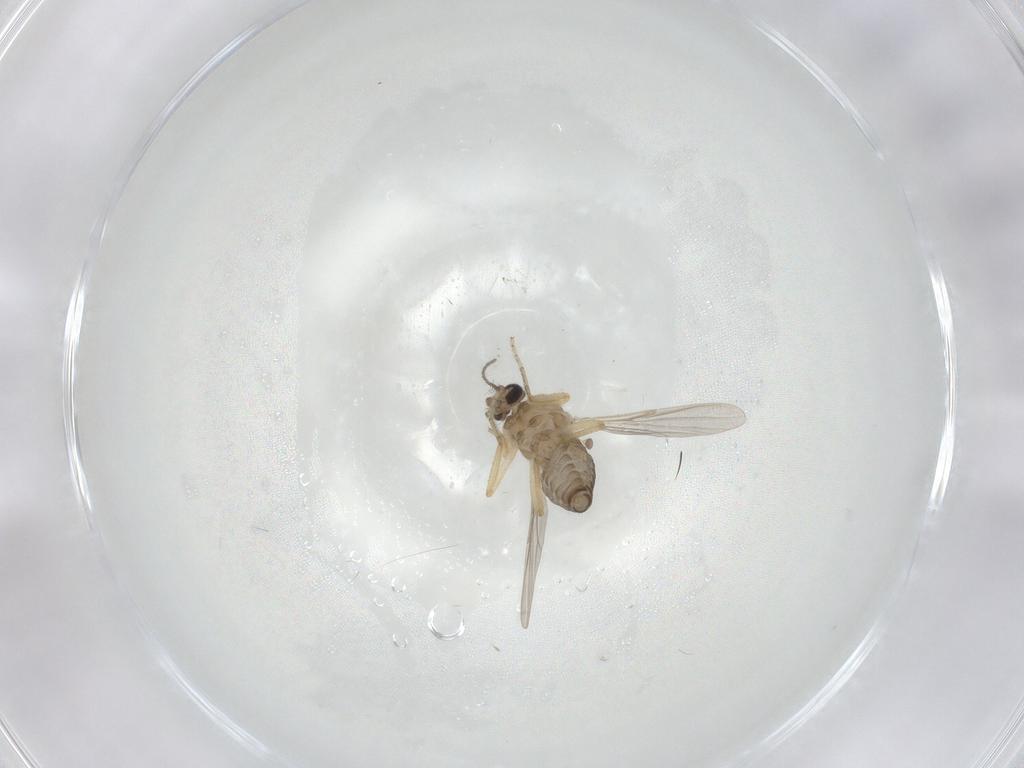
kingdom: Animalia
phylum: Arthropoda
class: Insecta
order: Diptera
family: Ceratopogonidae
